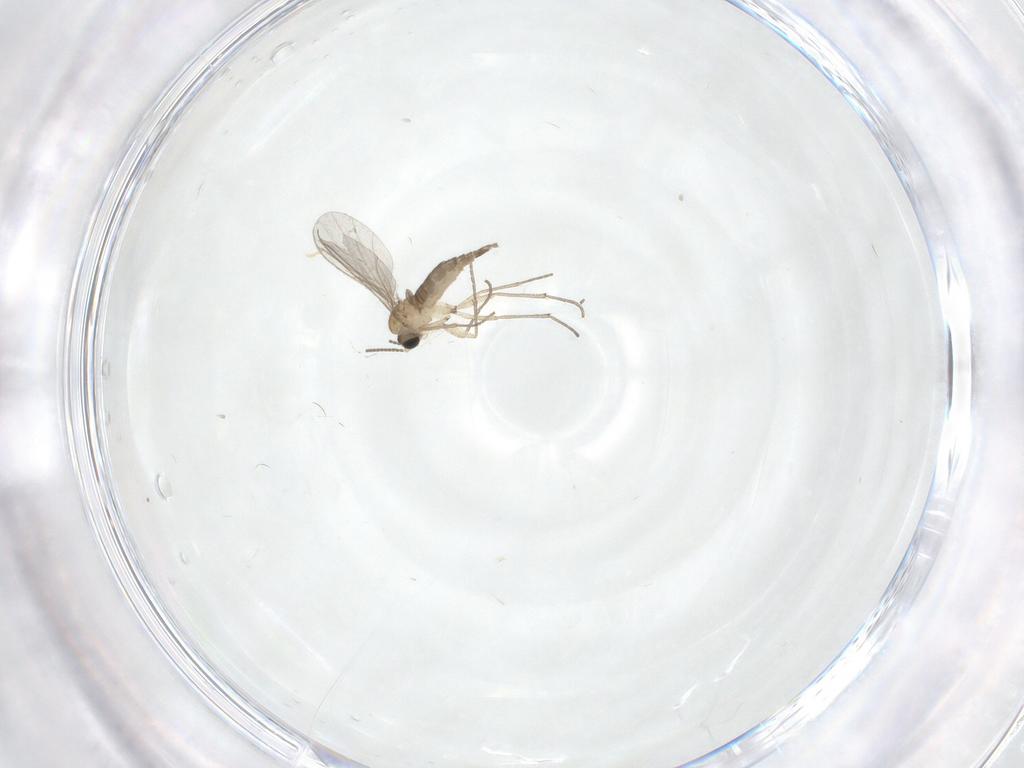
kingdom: Animalia
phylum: Arthropoda
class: Insecta
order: Diptera
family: Sciaridae
